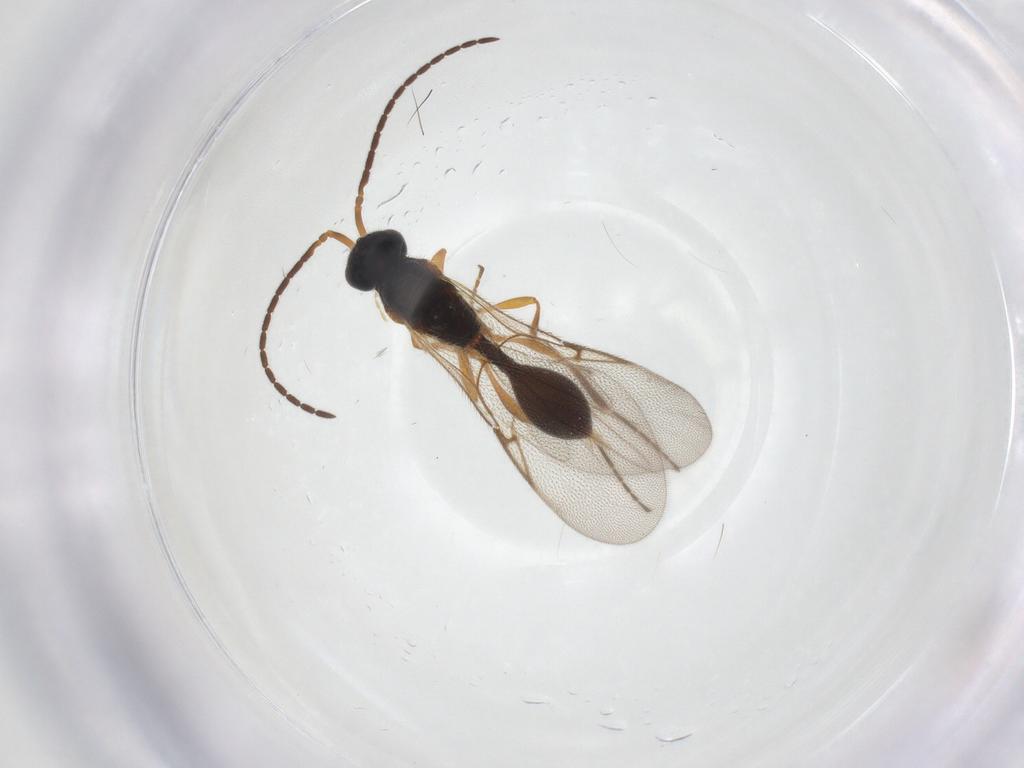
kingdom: Animalia
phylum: Arthropoda
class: Insecta
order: Hymenoptera
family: Diapriidae
